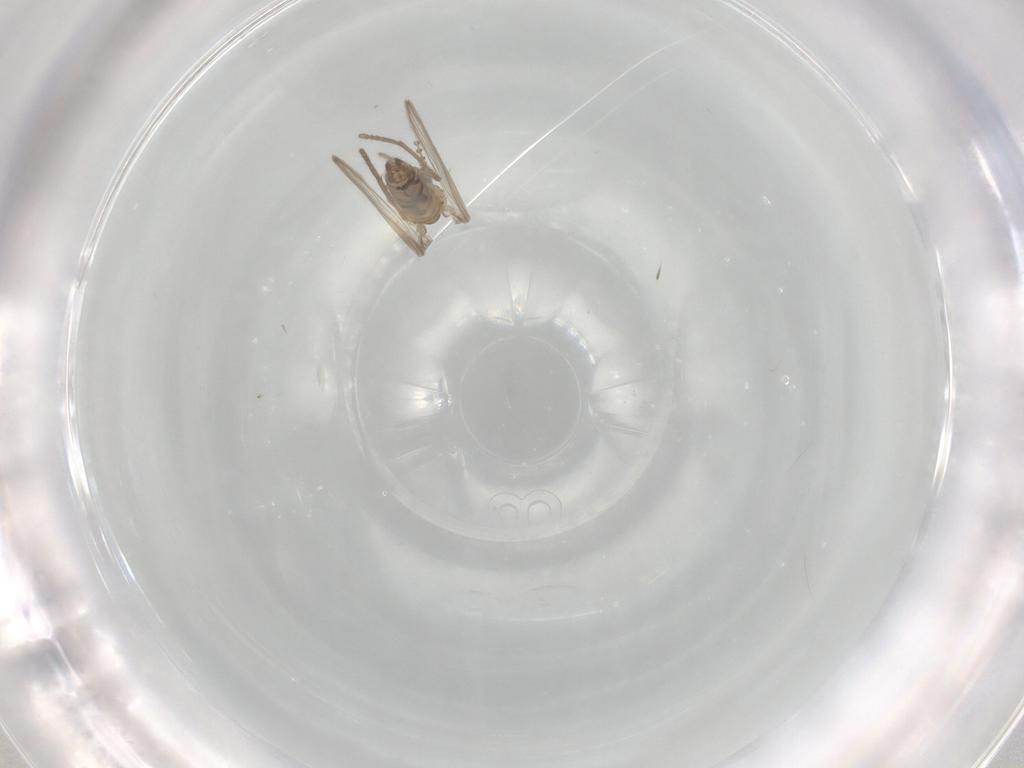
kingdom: Animalia
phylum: Arthropoda
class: Insecta
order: Diptera
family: Psychodidae
